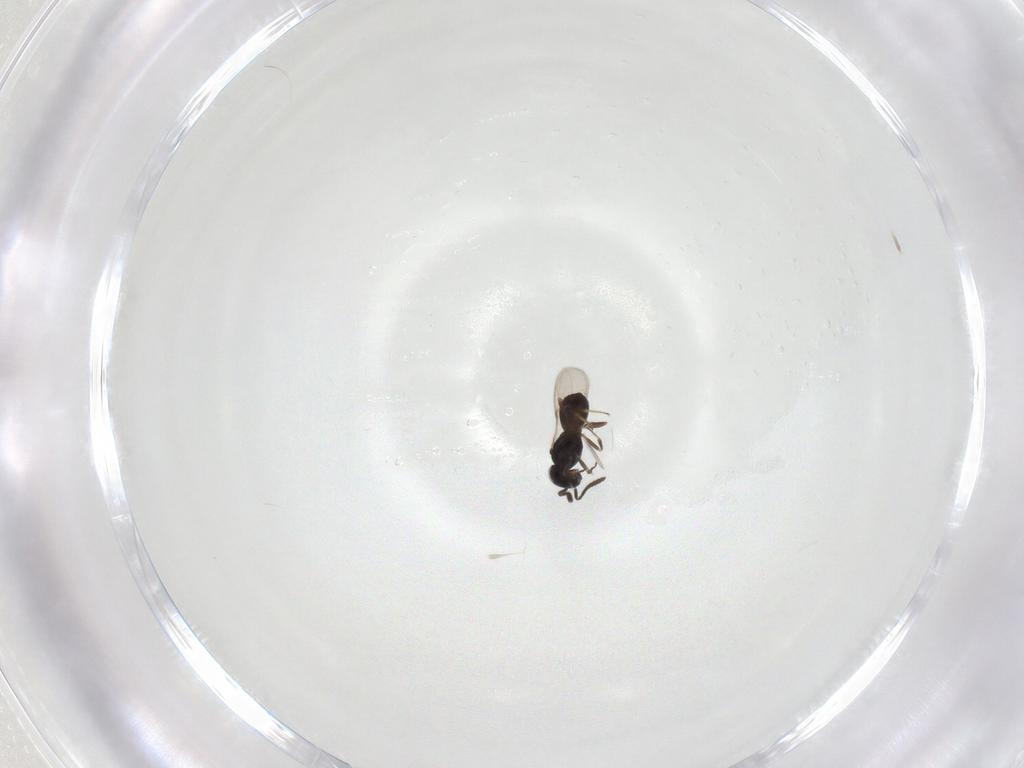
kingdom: Animalia
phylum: Arthropoda
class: Insecta
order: Hymenoptera
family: Scelionidae
